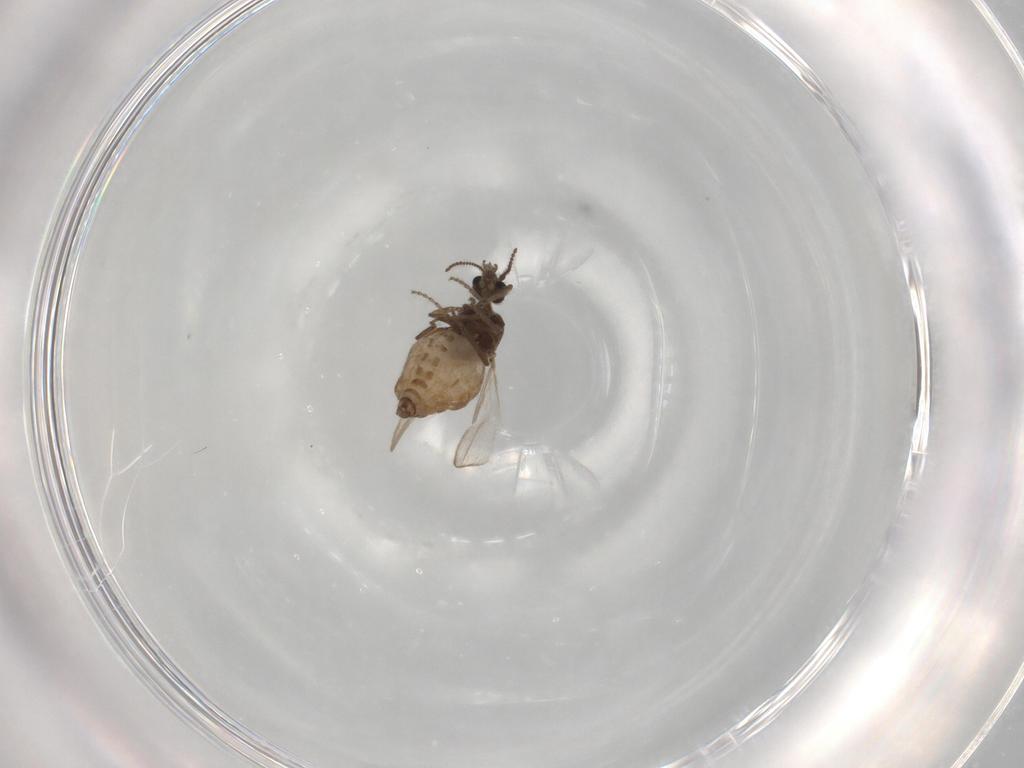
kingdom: Animalia
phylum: Arthropoda
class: Insecta
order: Diptera
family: Ceratopogonidae
